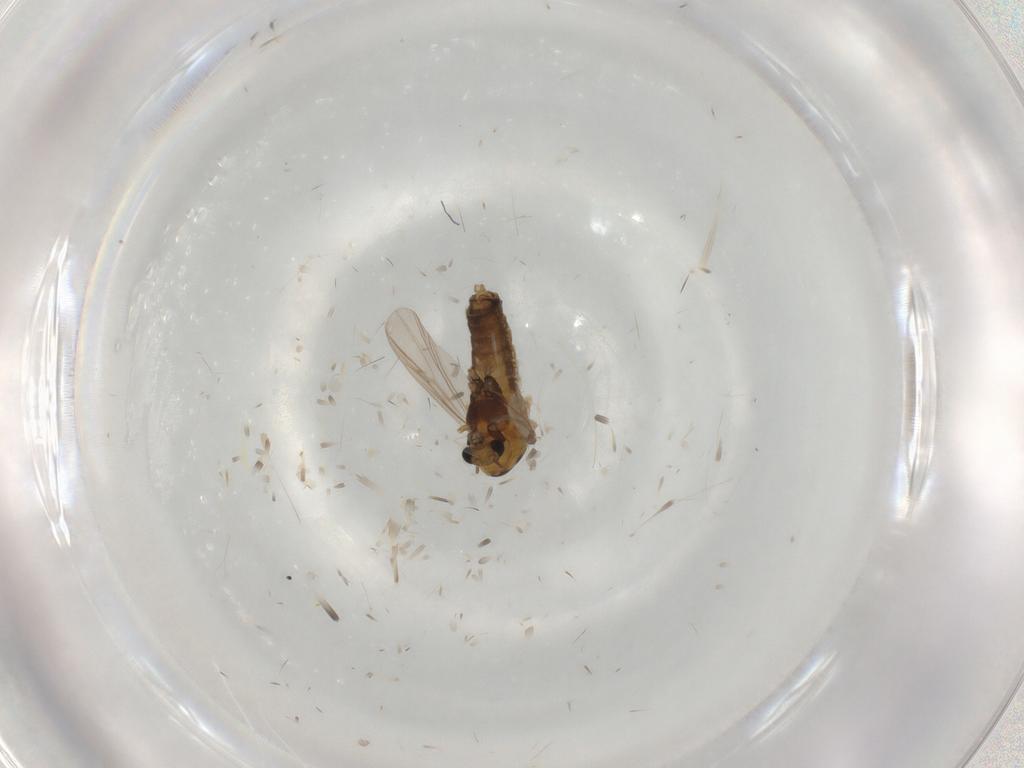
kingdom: Animalia
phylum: Arthropoda
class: Insecta
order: Diptera
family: Chironomidae
